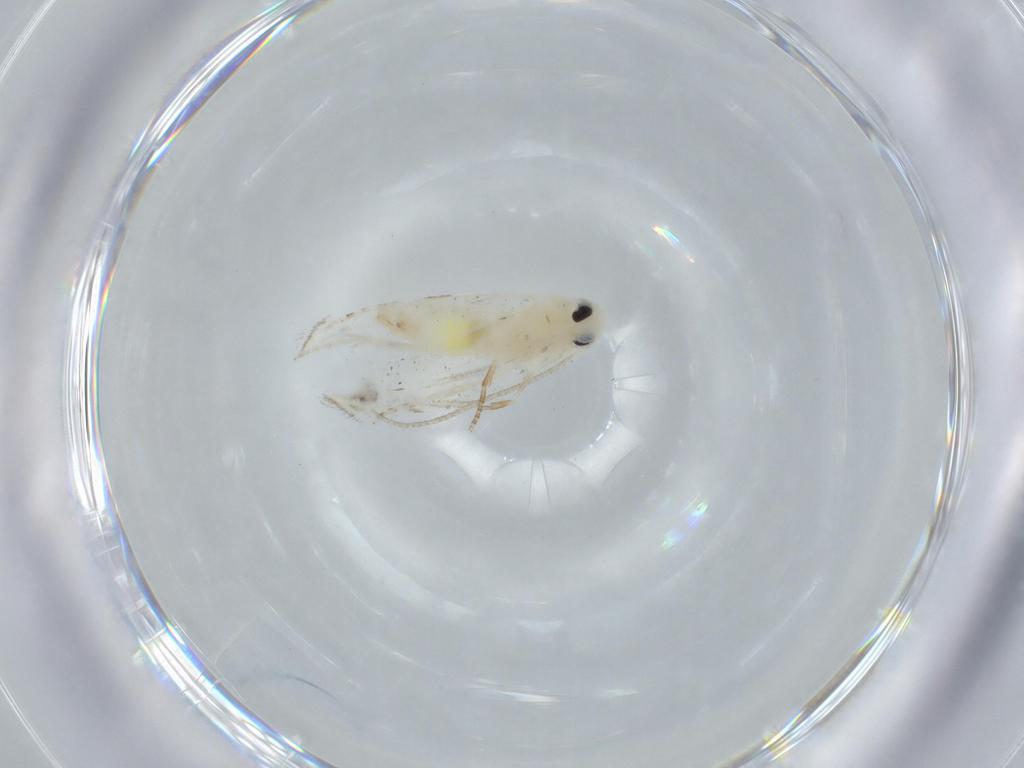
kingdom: Animalia
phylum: Arthropoda
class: Insecta
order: Lepidoptera
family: Lyonetiidae
